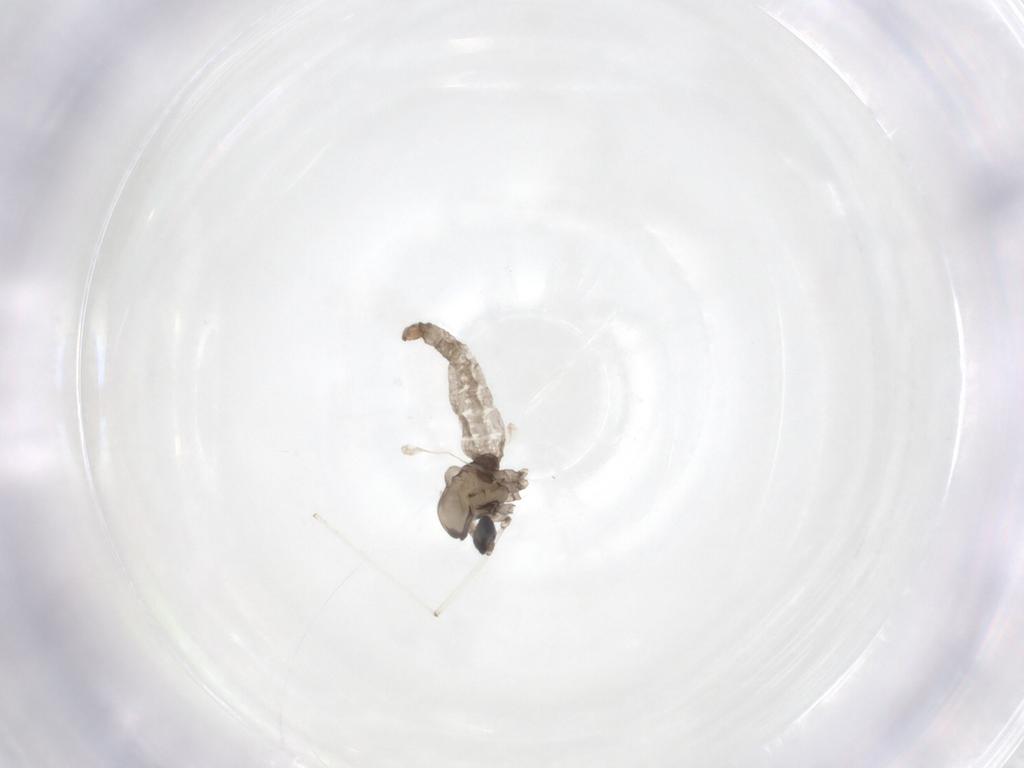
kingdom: Animalia
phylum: Arthropoda
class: Insecta
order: Diptera
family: Cecidomyiidae
